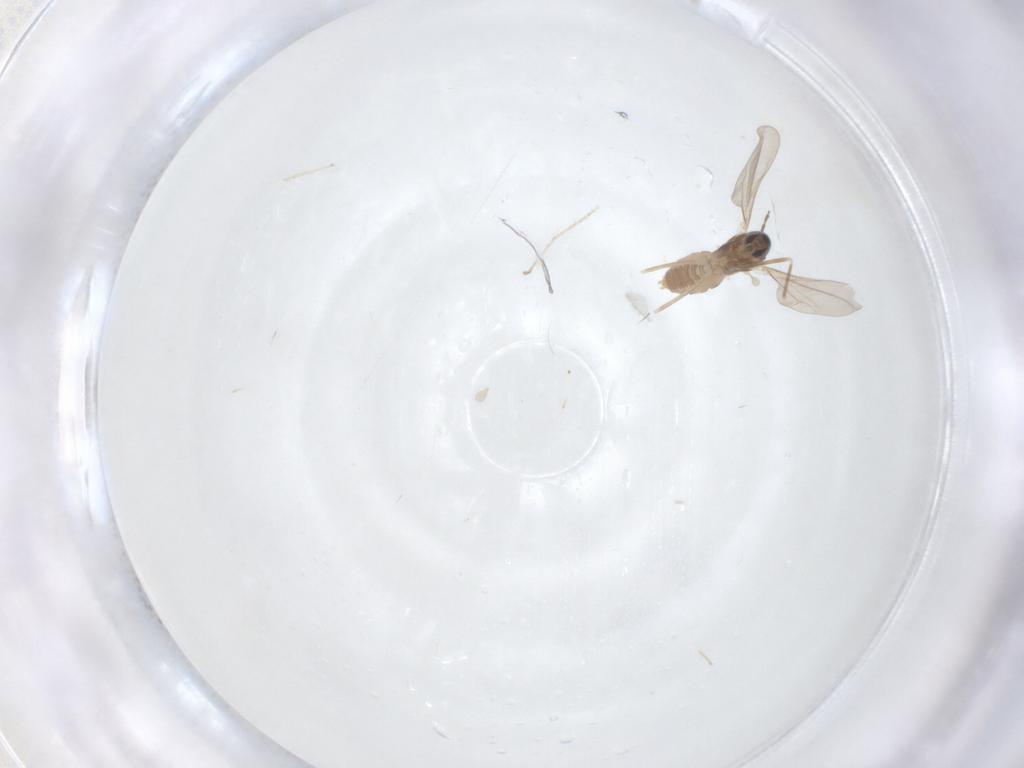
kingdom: Animalia
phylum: Arthropoda
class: Insecta
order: Diptera
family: Cecidomyiidae
